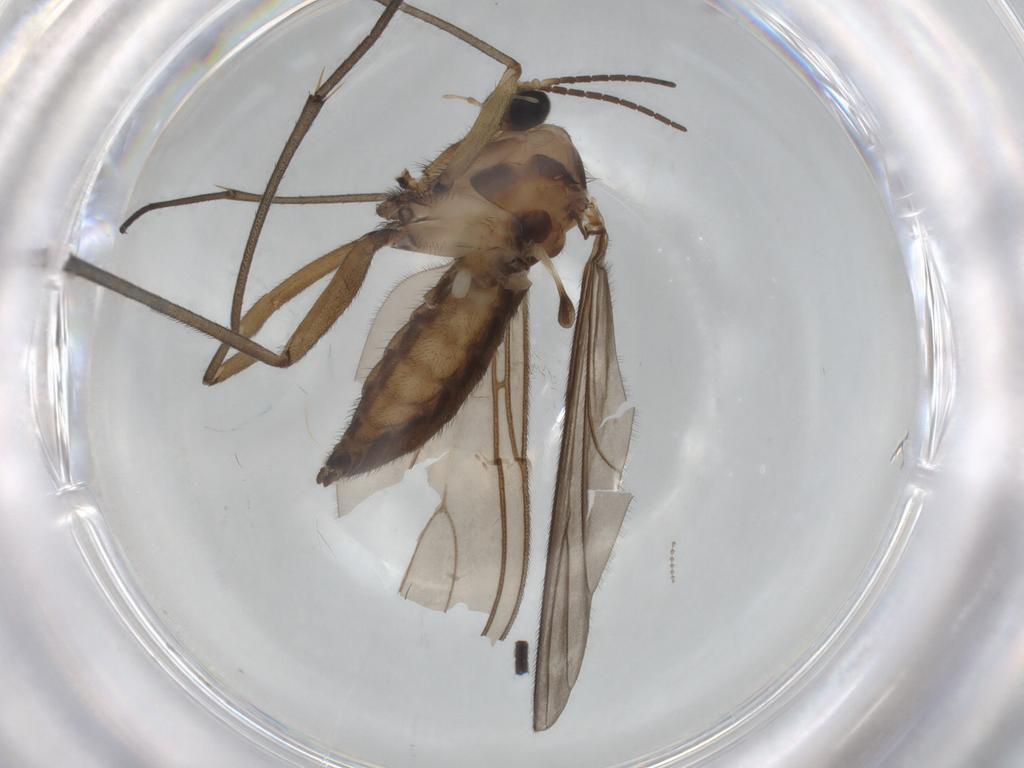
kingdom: Animalia
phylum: Arthropoda
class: Insecta
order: Diptera
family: Sciaridae
